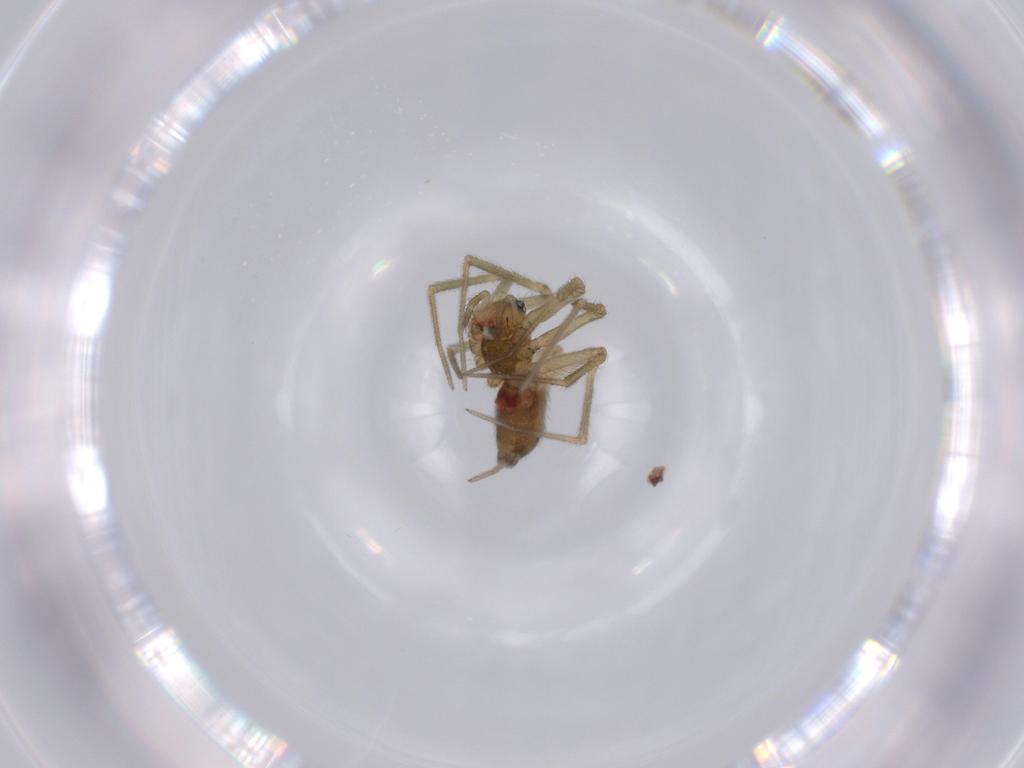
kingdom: Animalia
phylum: Arthropoda
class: Arachnida
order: Araneae
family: Linyphiidae
